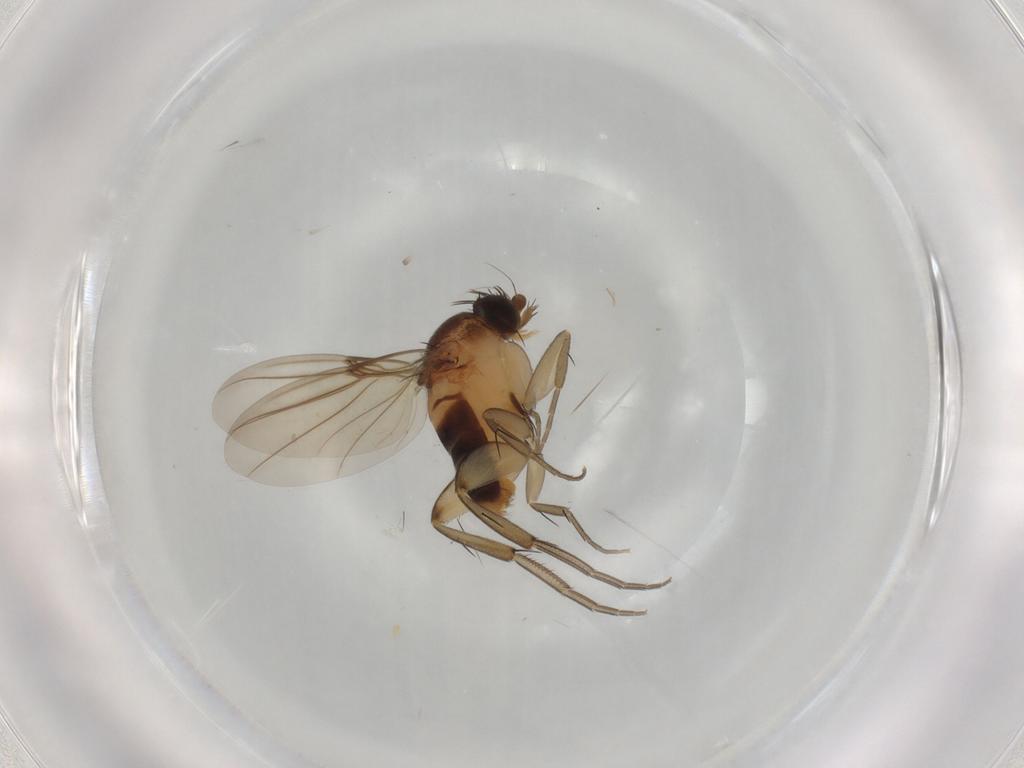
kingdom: Animalia
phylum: Arthropoda
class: Insecta
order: Diptera
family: Phoridae
